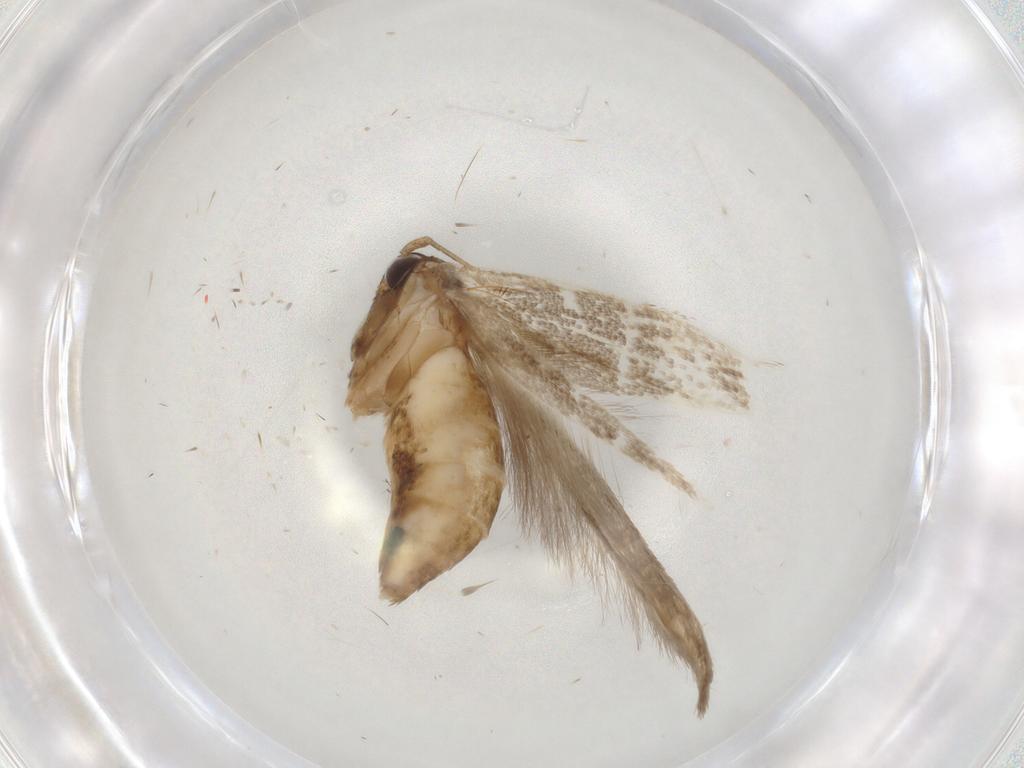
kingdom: Animalia
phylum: Arthropoda
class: Insecta
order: Lepidoptera
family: Cosmopterigidae
